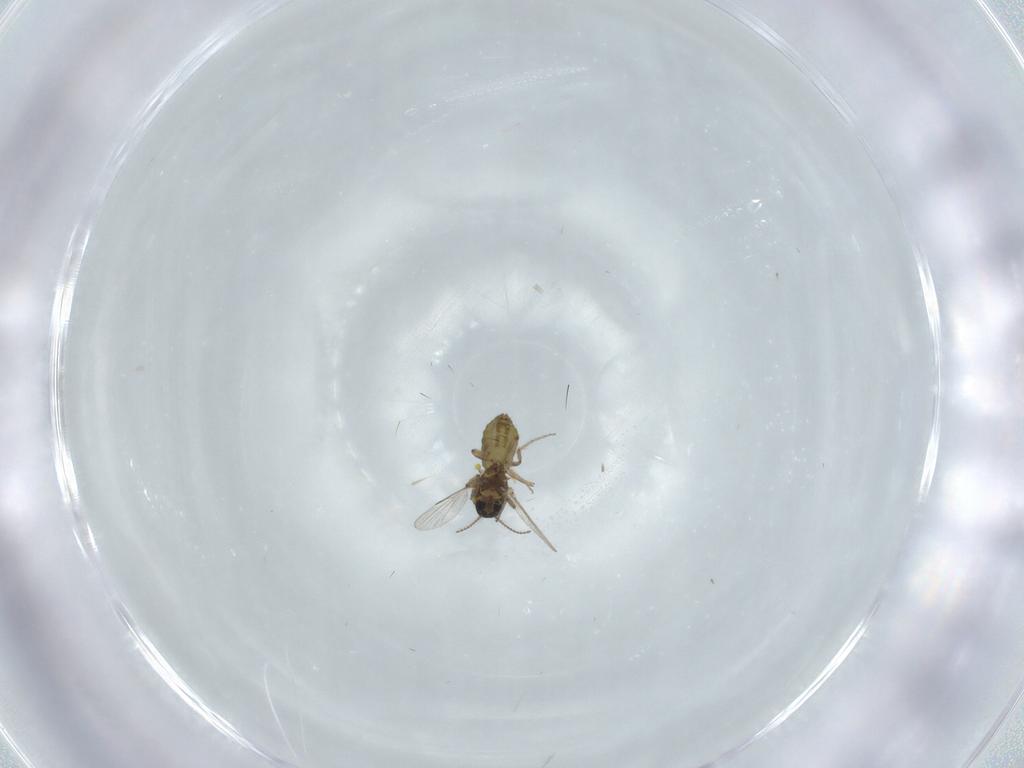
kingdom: Animalia
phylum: Arthropoda
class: Insecta
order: Diptera
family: Ceratopogonidae
